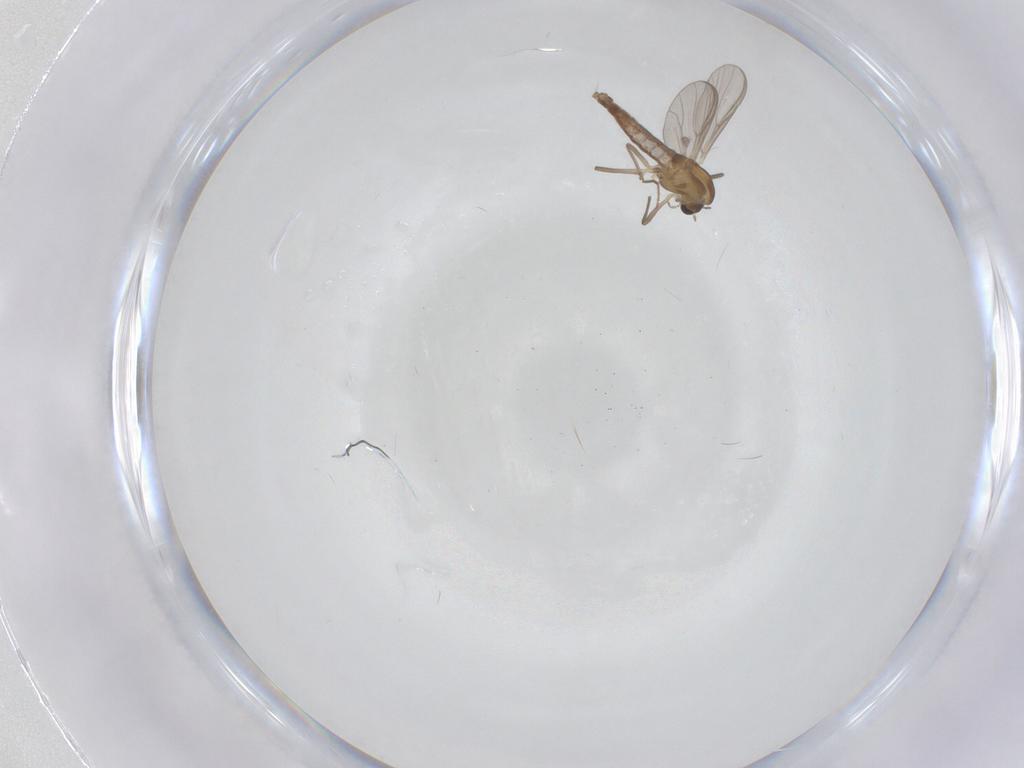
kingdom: Animalia
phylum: Arthropoda
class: Insecta
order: Diptera
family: Chironomidae
